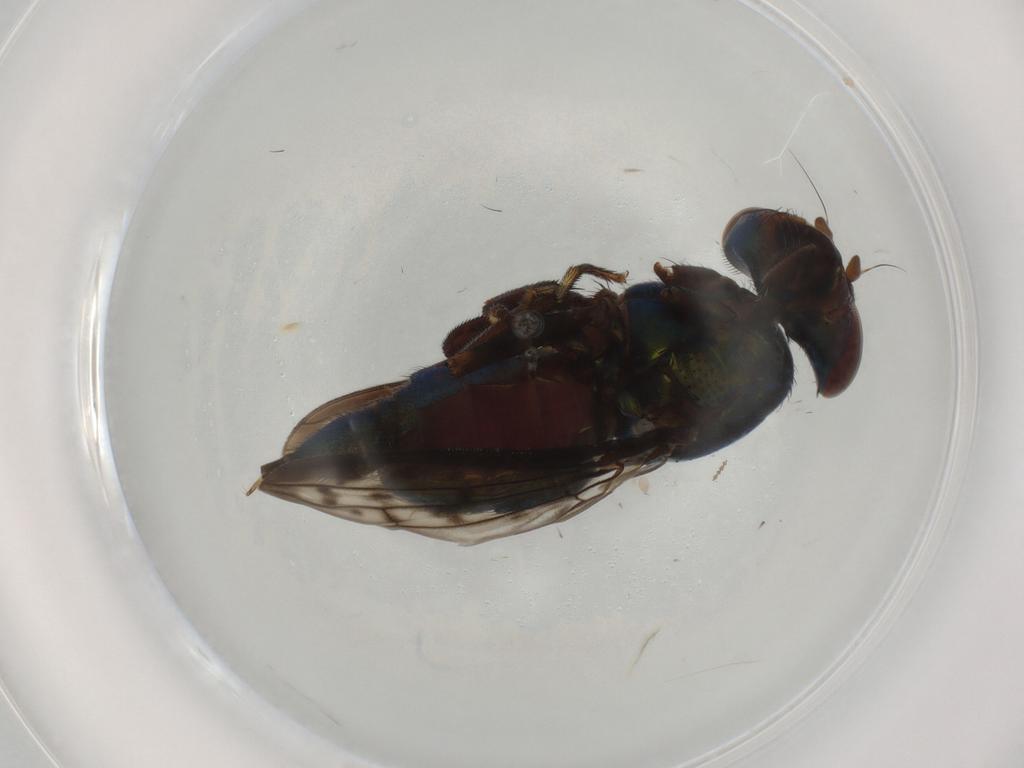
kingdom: Animalia
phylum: Arthropoda
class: Insecta
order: Diptera
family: Ulidiidae
